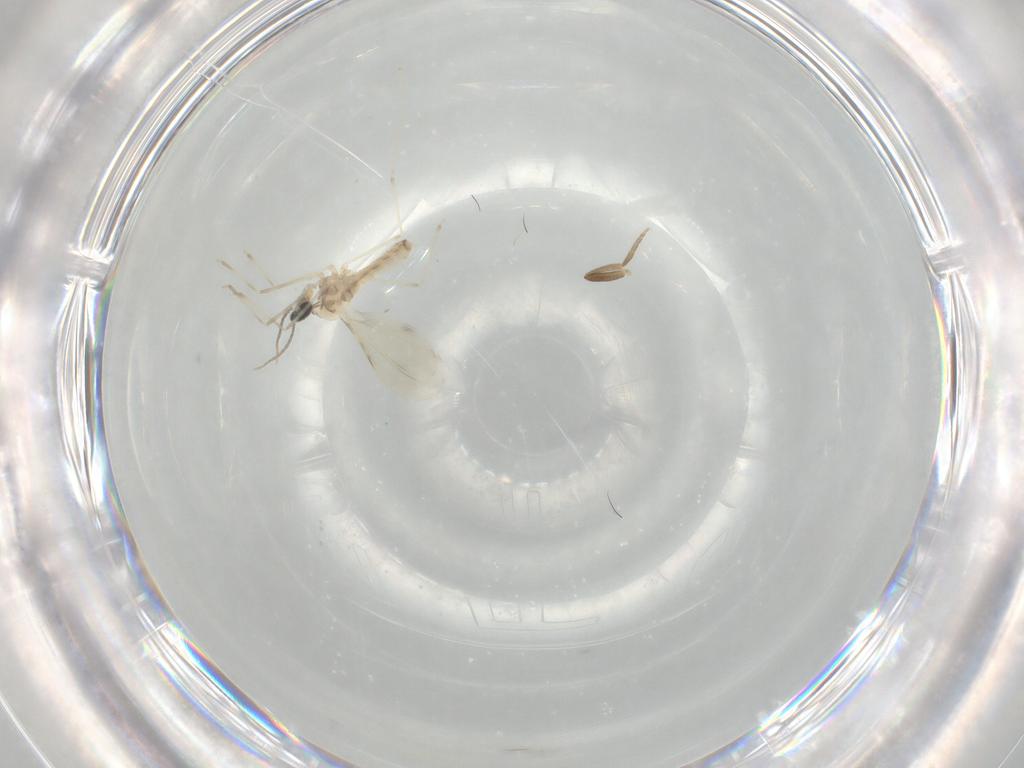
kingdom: Animalia
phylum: Arthropoda
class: Insecta
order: Diptera
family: Cecidomyiidae
